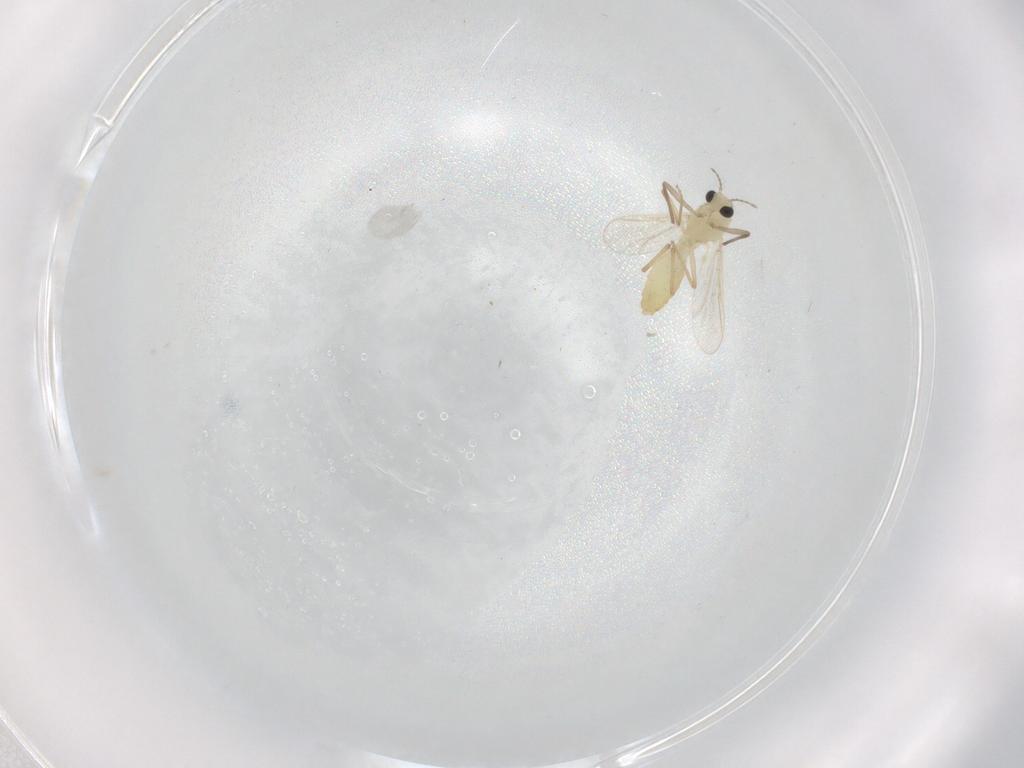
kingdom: Animalia
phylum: Arthropoda
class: Insecta
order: Diptera
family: Chironomidae
